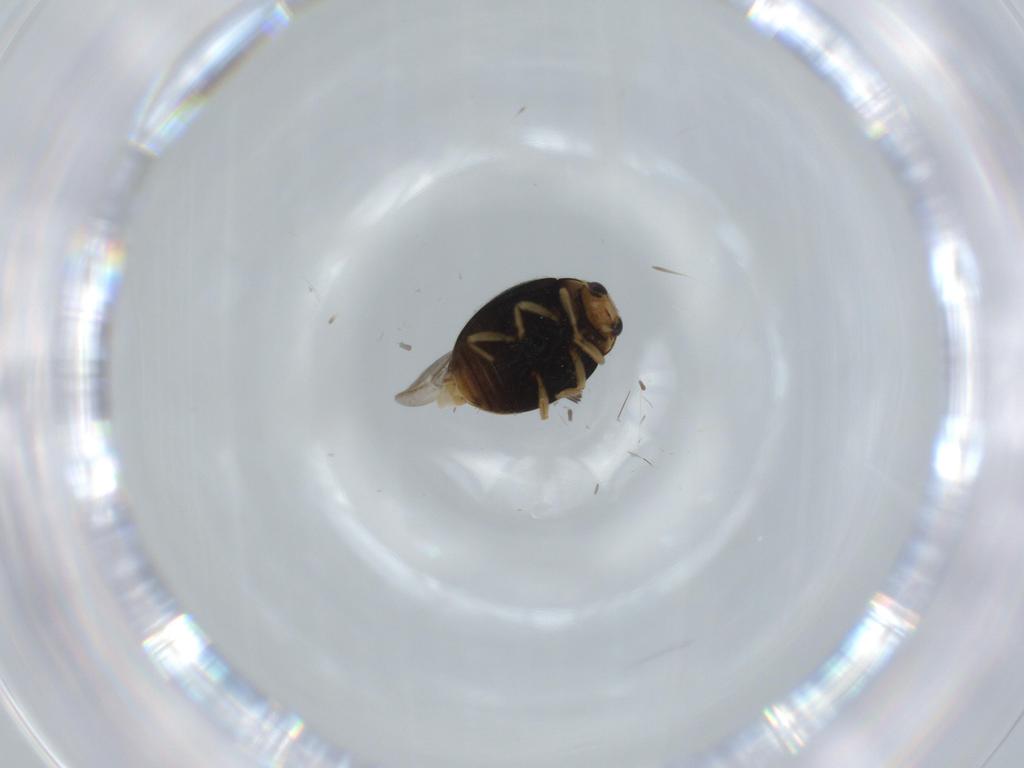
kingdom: Animalia
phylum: Arthropoda
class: Insecta
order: Coleoptera
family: Coccinellidae
